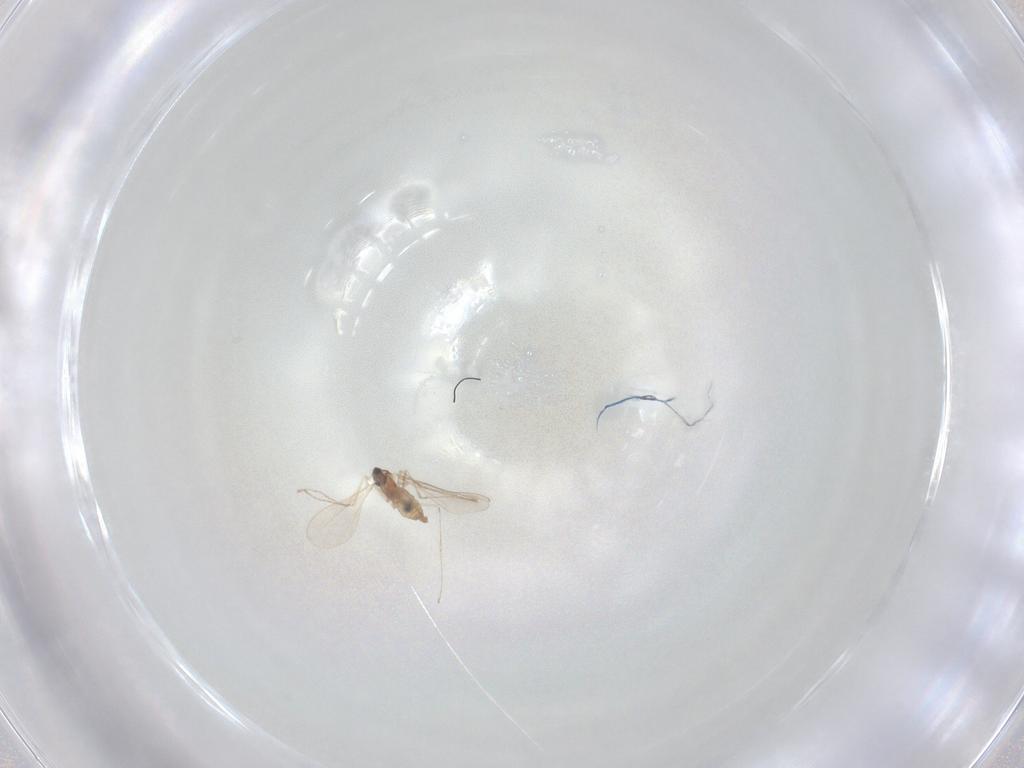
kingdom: Animalia
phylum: Arthropoda
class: Insecta
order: Diptera
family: Cecidomyiidae
